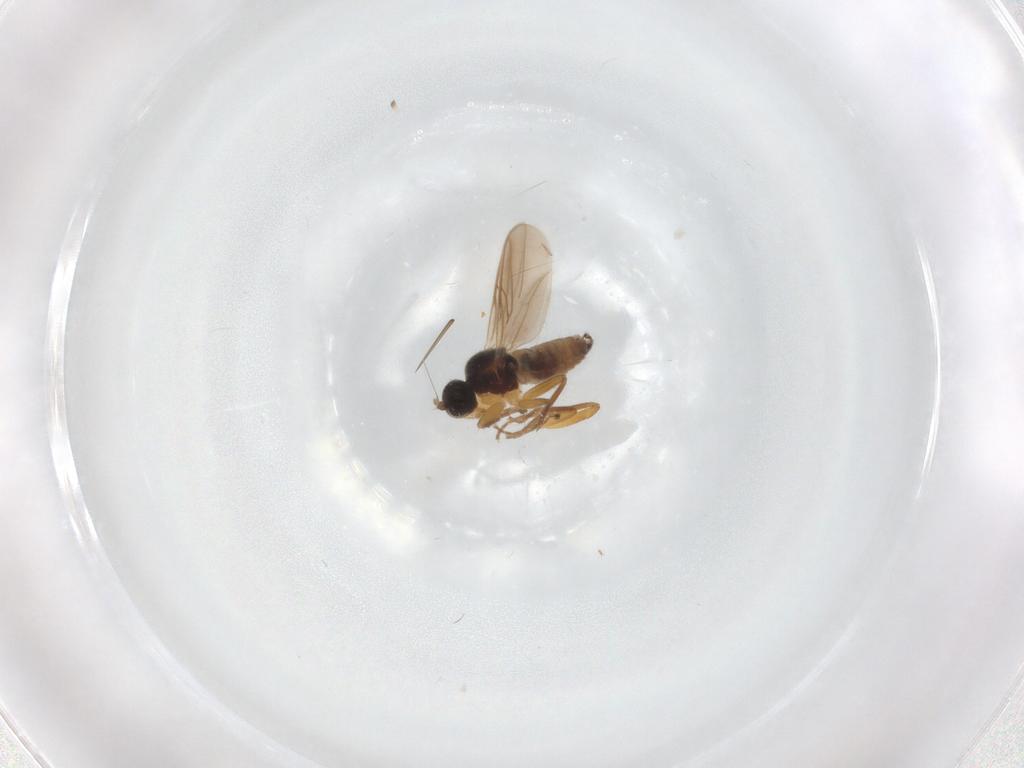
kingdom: Animalia
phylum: Arthropoda
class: Insecta
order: Diptera
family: Hybotidae
